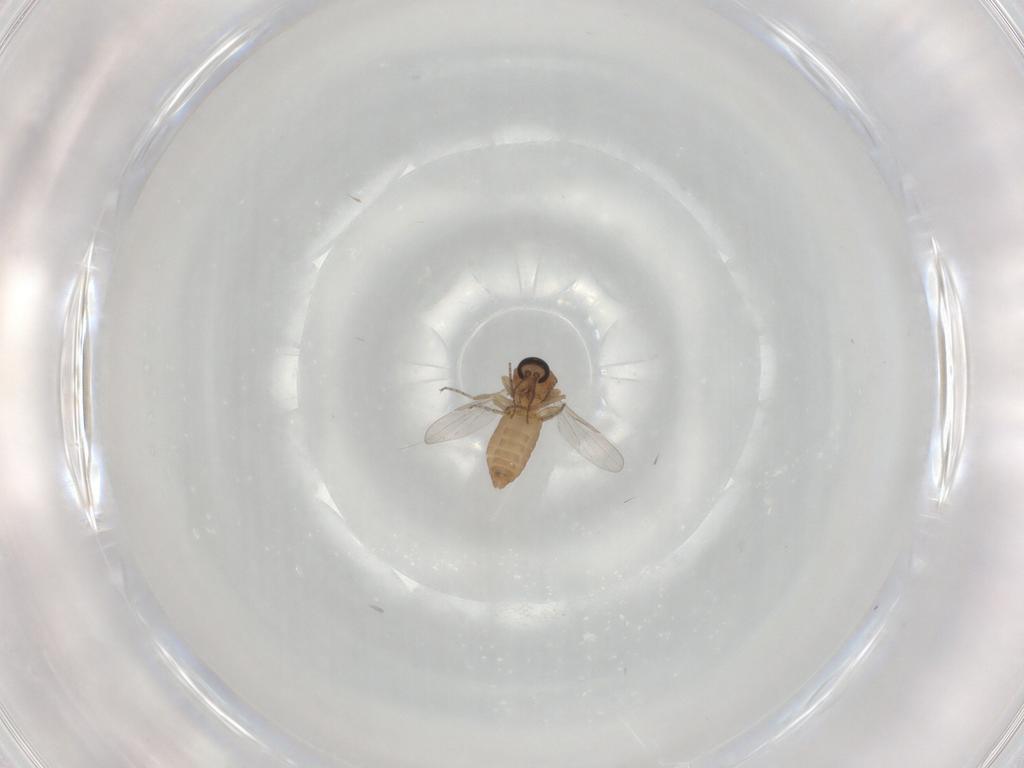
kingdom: Animalia
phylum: Arthropoda
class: Insecta
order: Diptera
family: Ceratopogonidae
